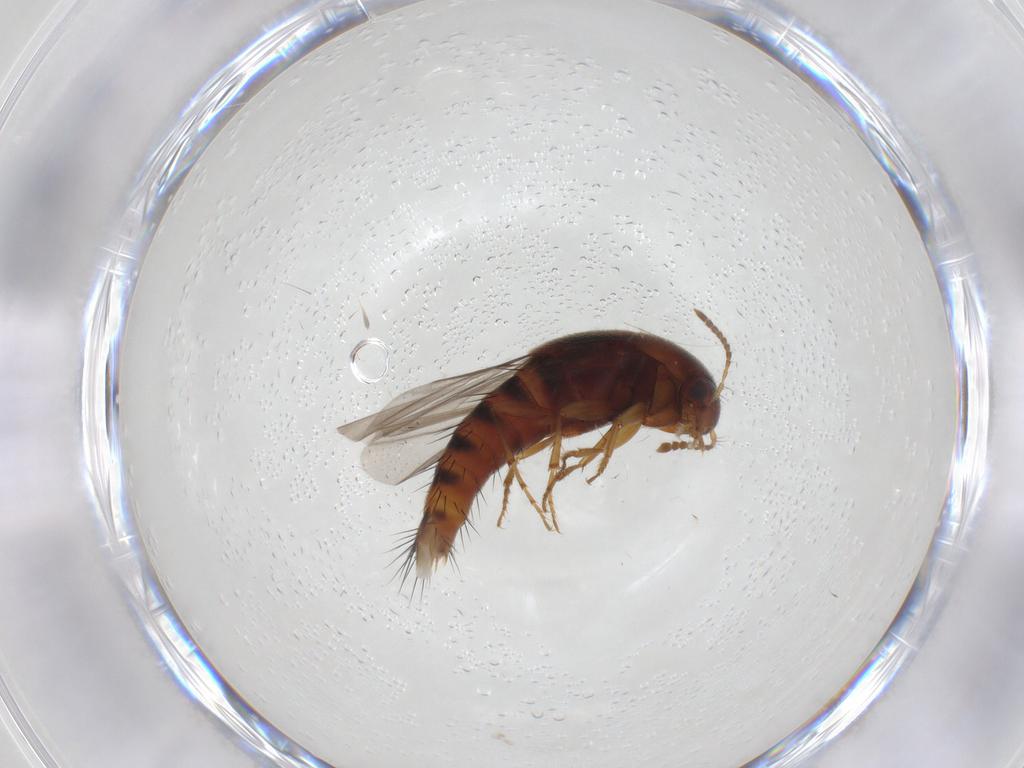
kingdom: Animalia
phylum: Arthropoda
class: Insecta
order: Coleoptera
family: Staphylinidae
